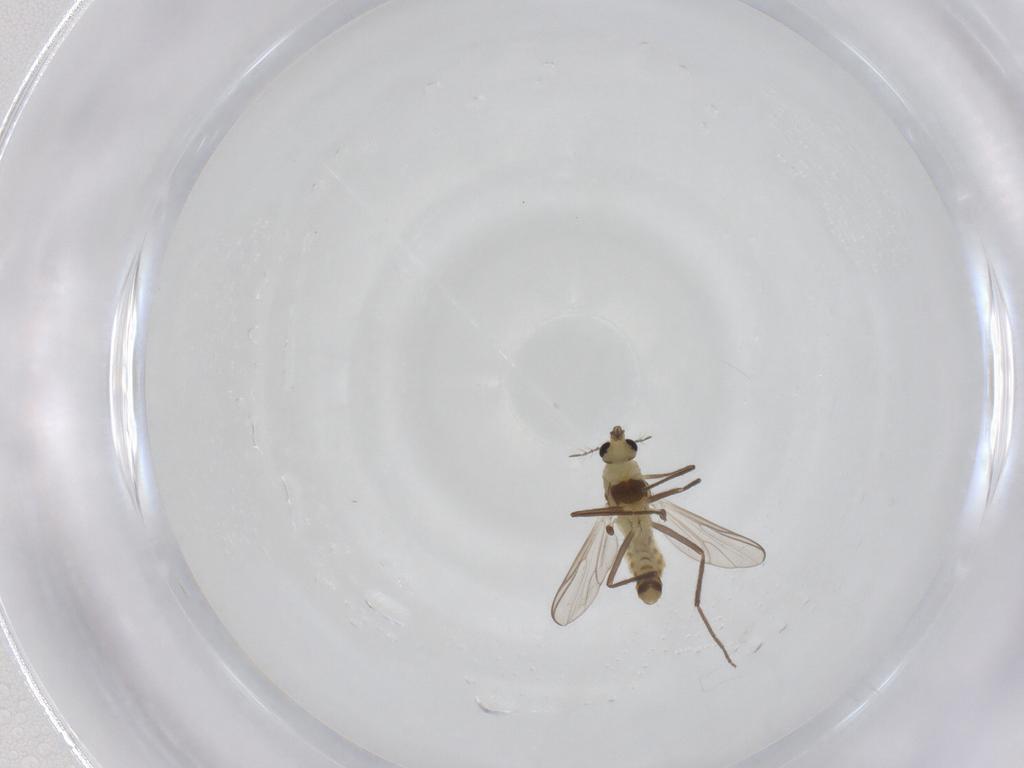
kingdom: Animalia
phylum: Arthropoda
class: Insecta
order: Diptera
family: Chironomidae
